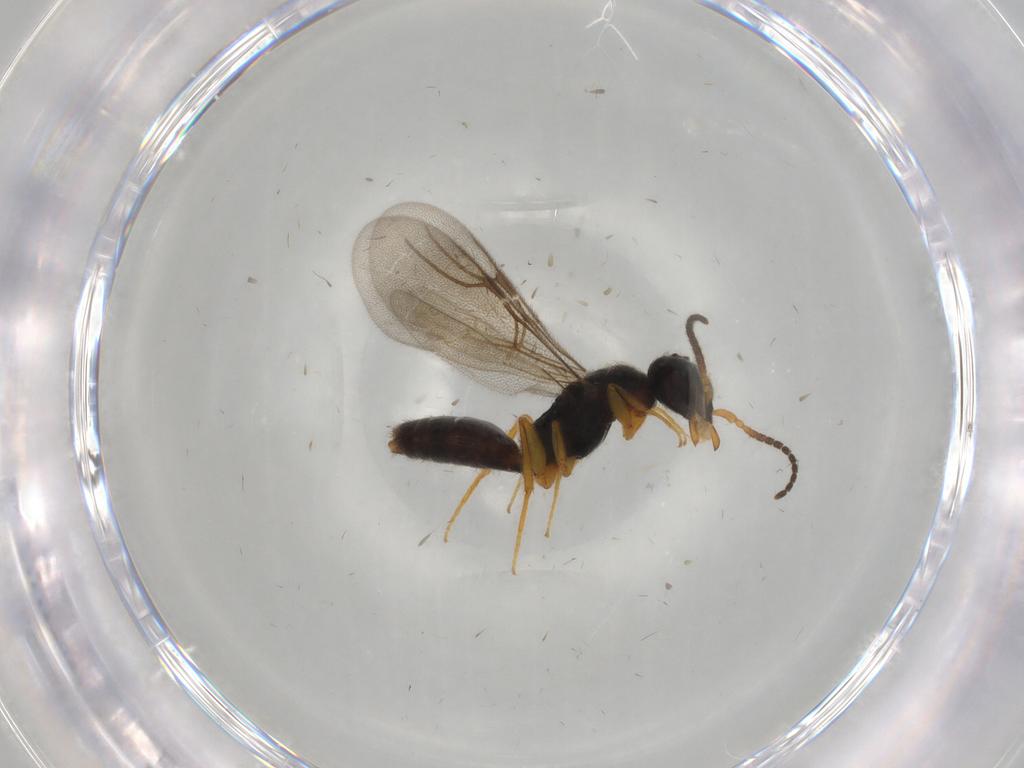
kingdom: Animalia
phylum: Arthropoda
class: Insecta
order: Hymenoptera
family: Bethylidae
